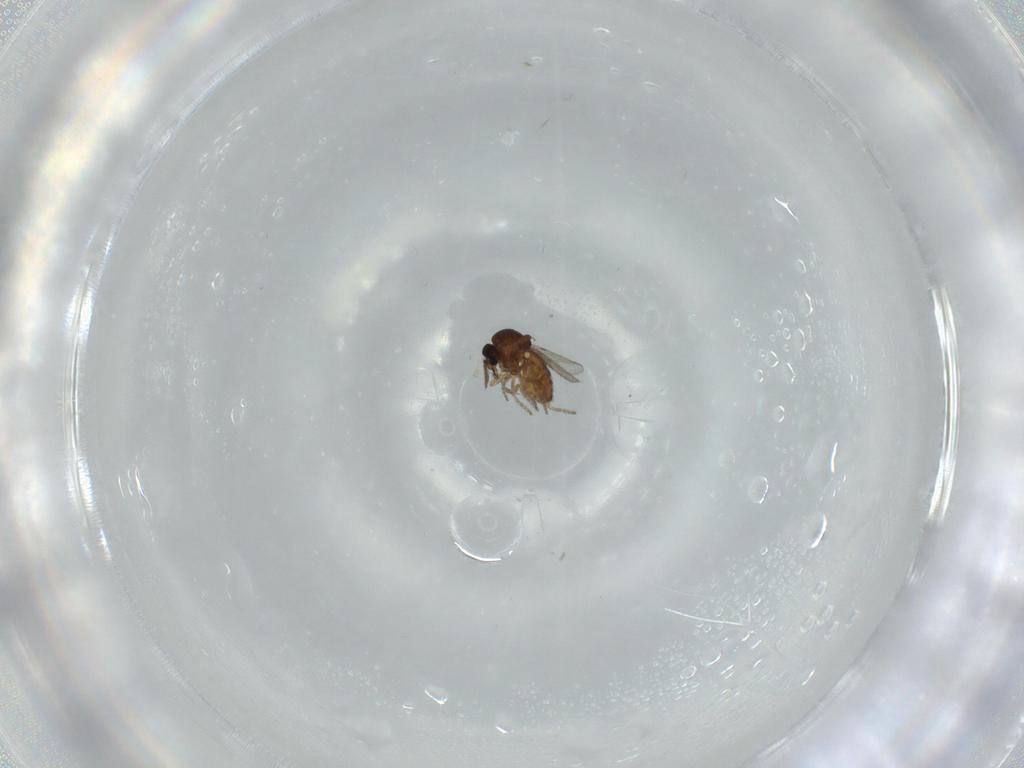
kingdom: Animalia
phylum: Arthropoda
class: Insecta
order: Diptera
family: Ceratopogonidae
